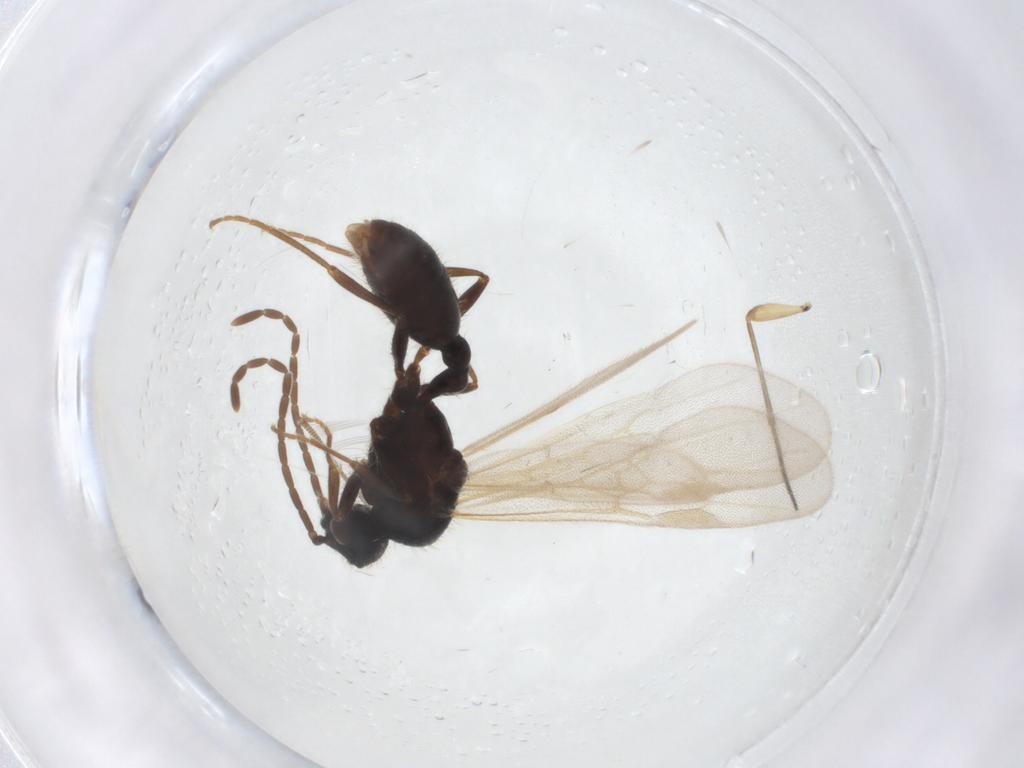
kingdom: Animalia
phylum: Arthropoda
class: Insecta
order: Hymenoptera
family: Formicidae
